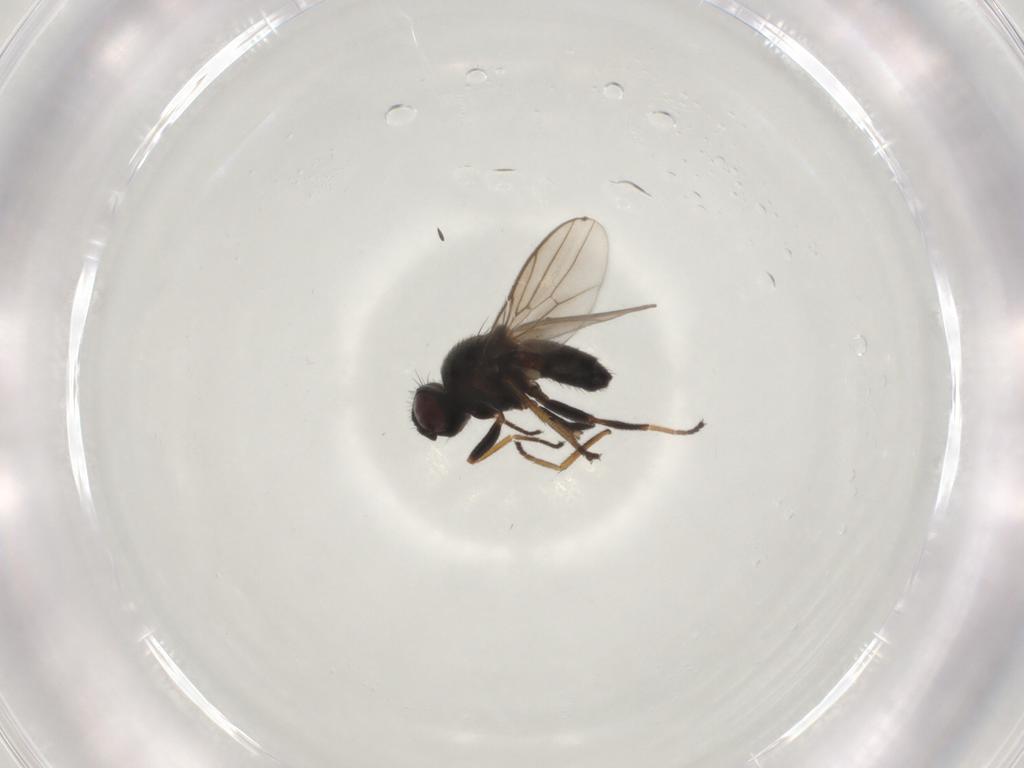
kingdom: Animalia
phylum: Arthropoda
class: Insecta
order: Diptera
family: Chloropidae
